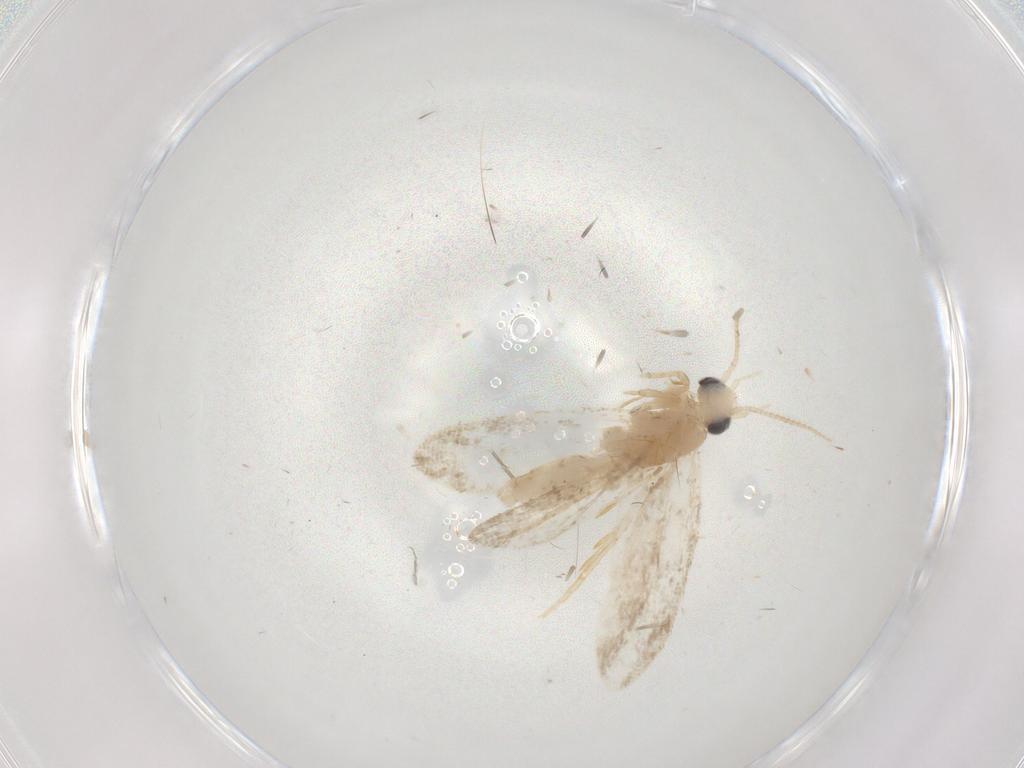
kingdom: Animalia
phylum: Arthropoda
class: Insecta
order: Lepidoptera
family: Psychidae
